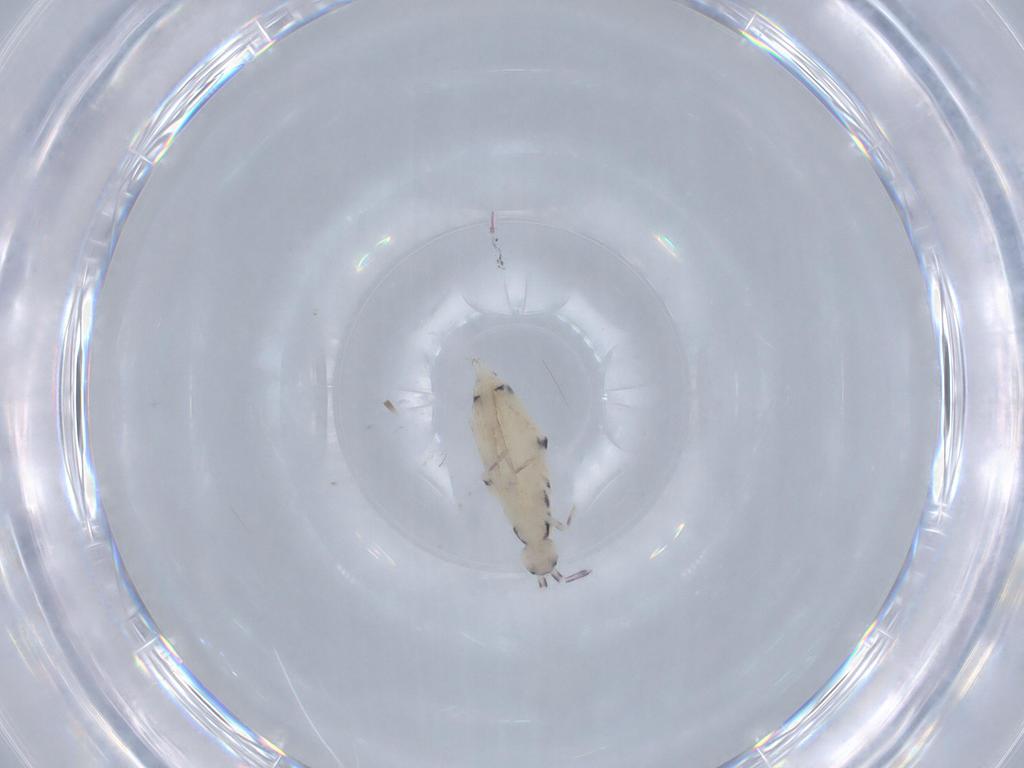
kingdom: Animalia
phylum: Arthropoda
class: Collembola
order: Entomobryomorpha
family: Entomobryidae
